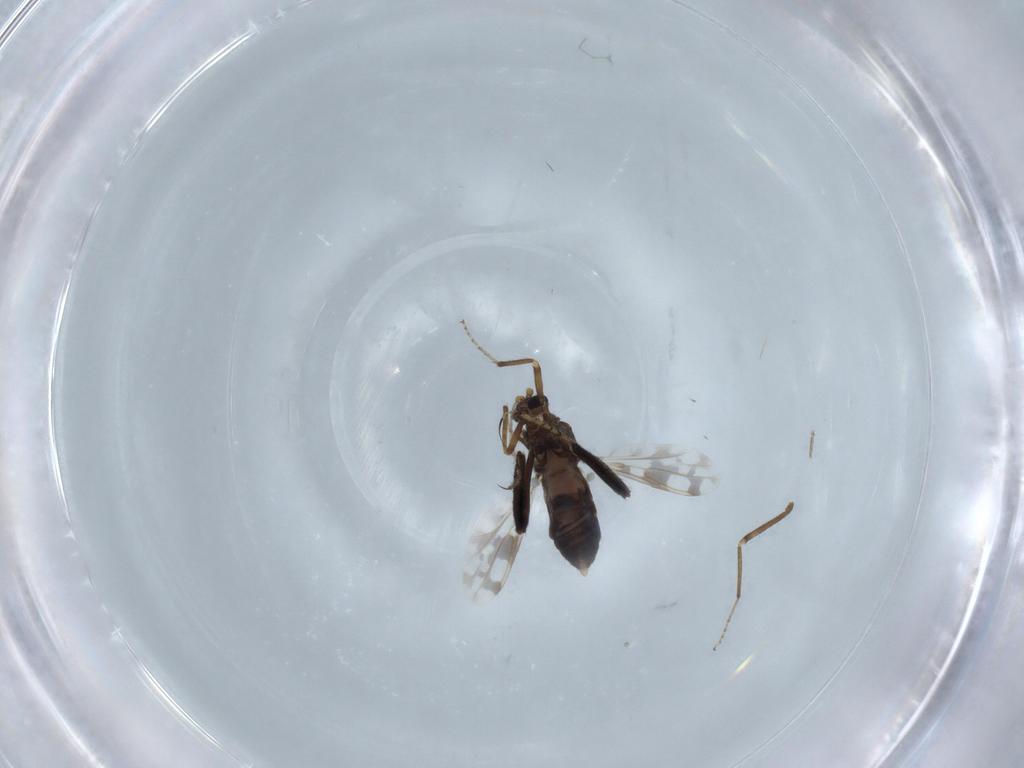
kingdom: Animalia
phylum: Arthropoda
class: Insecta
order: Diptera
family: Ceratopogonidae
